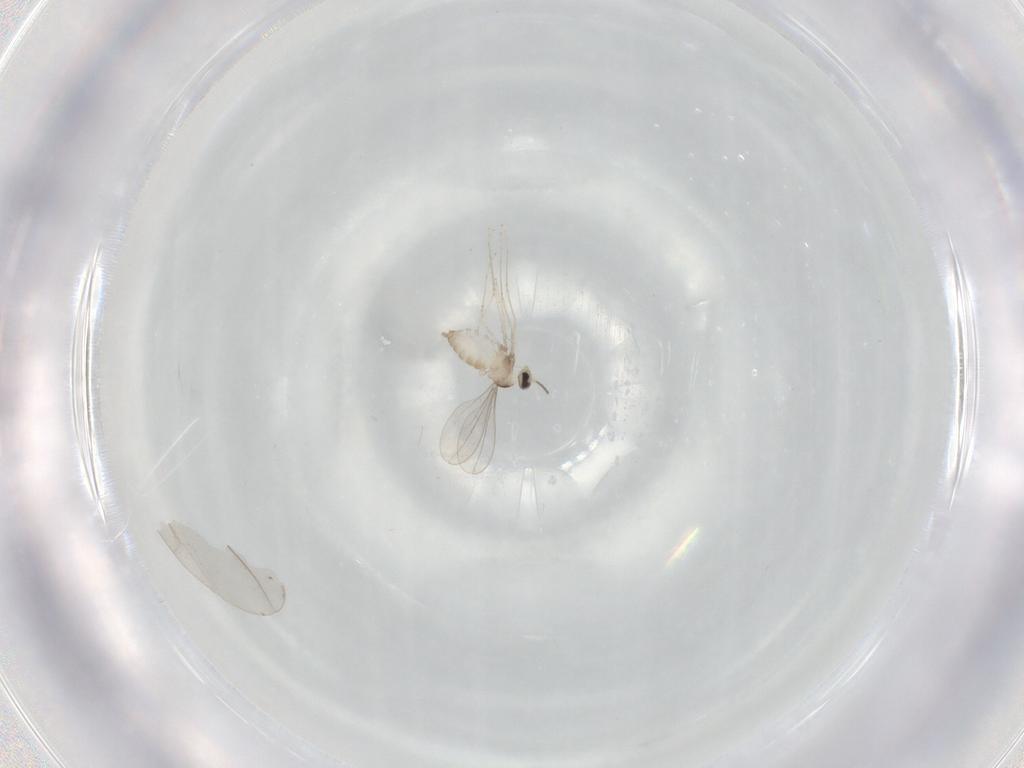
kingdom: Animalia
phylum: Arthropoda
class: Insecta
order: Diptera
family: Cecidomyiidae
